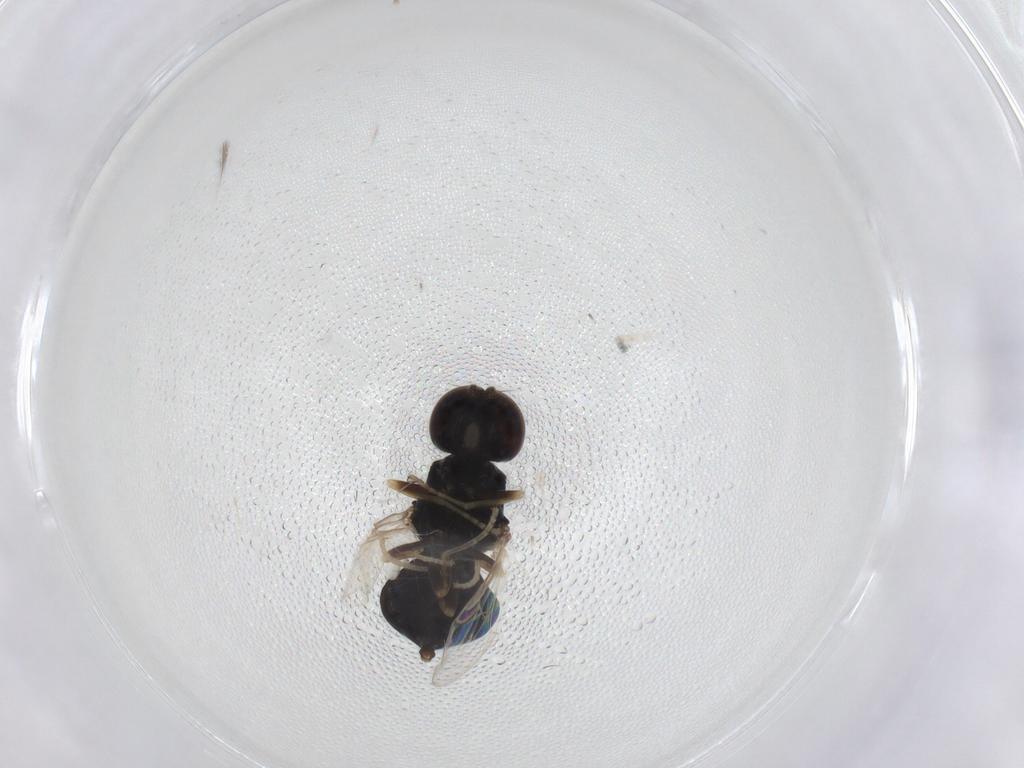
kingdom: Animalia
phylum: Arthropoda
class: Insecta
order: Diptera
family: Stratiomyidae
